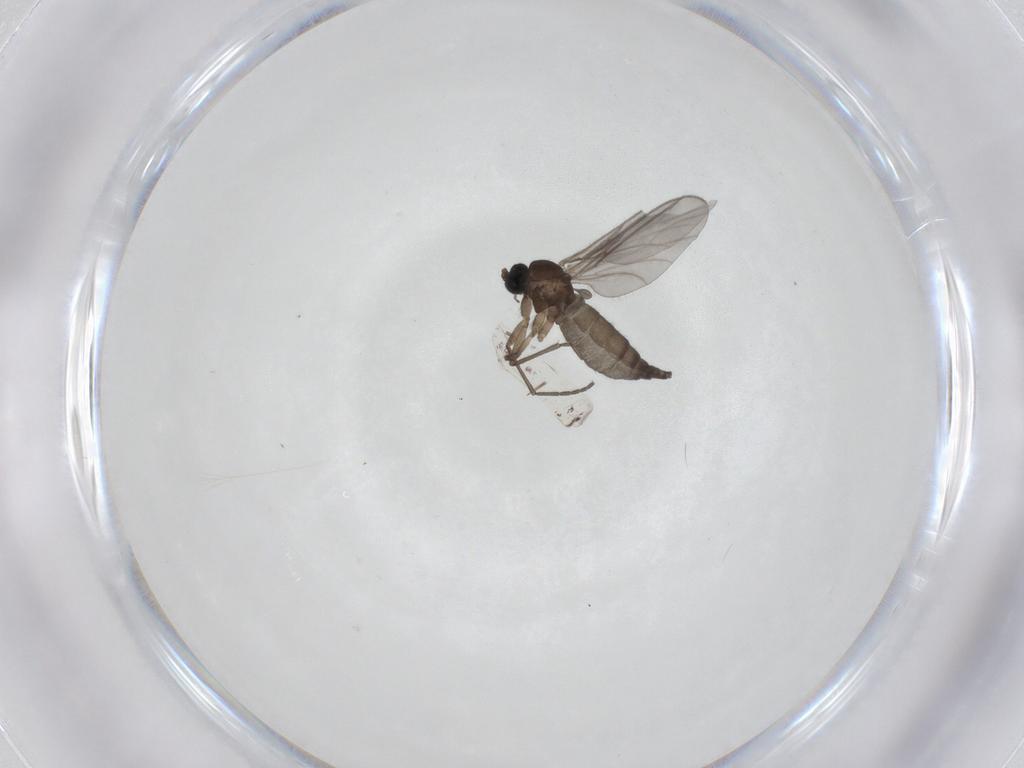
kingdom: Animalia
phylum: Arthropoda
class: Insecta
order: Diptera
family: Sciaridae
